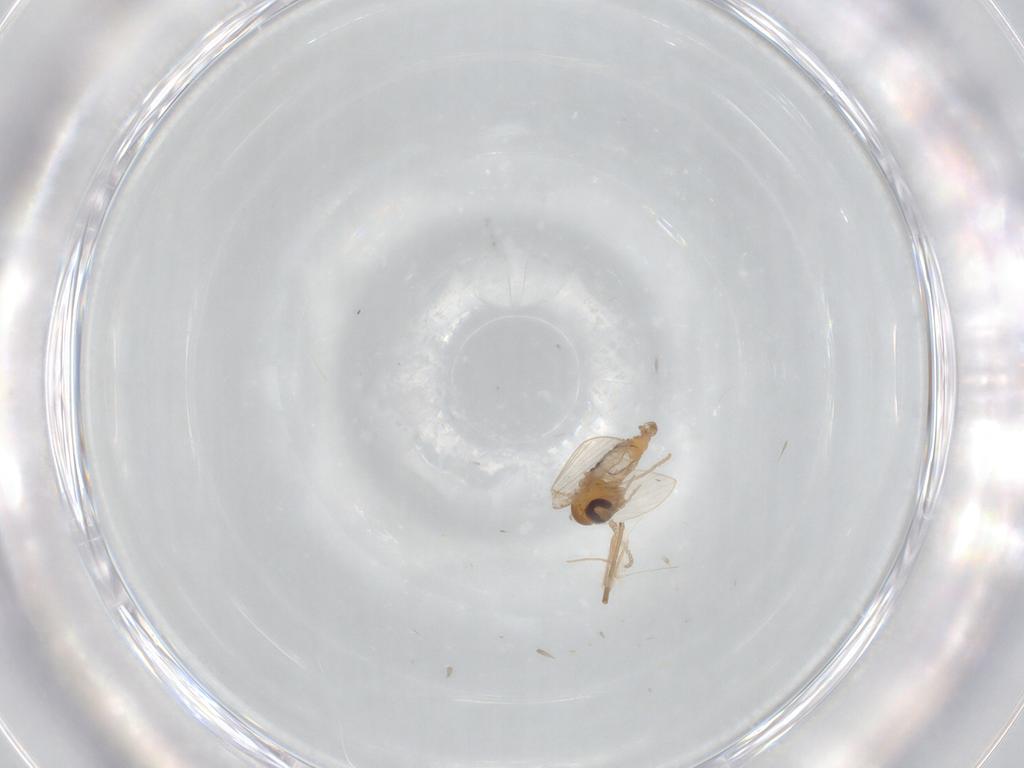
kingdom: Animalia
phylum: Arthropoda
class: Insecta
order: Diptera
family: Chironomidae
